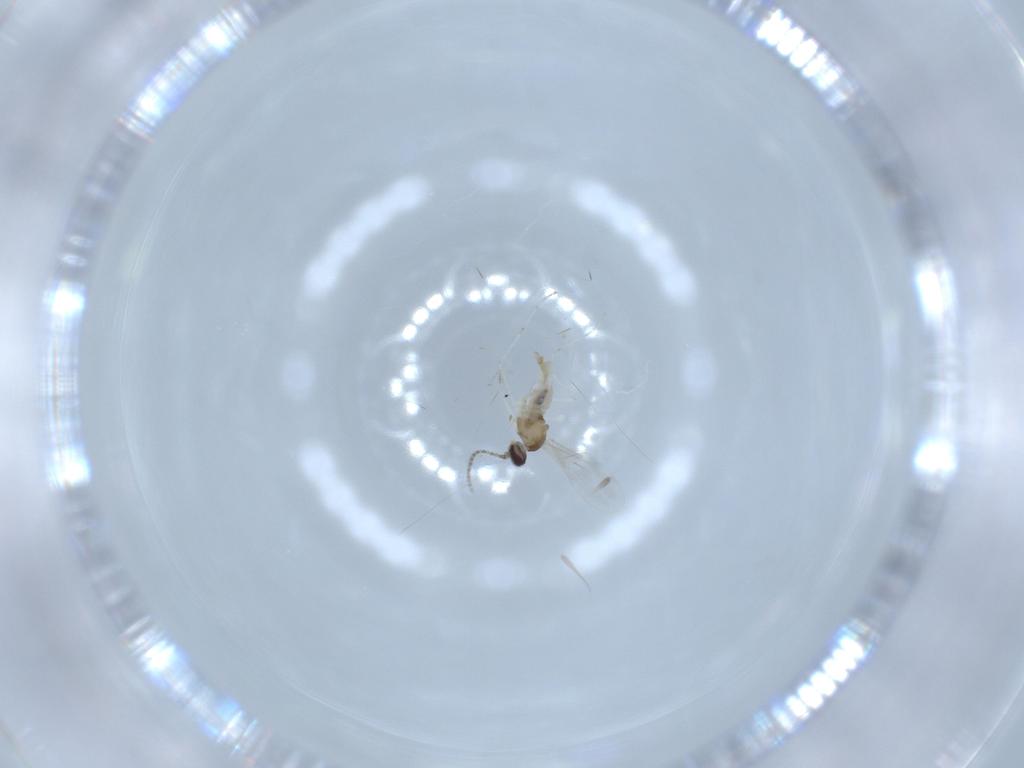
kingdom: Animalia
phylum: Arthropoda
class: Insecta
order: Diptera
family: Cecidomyiidae
